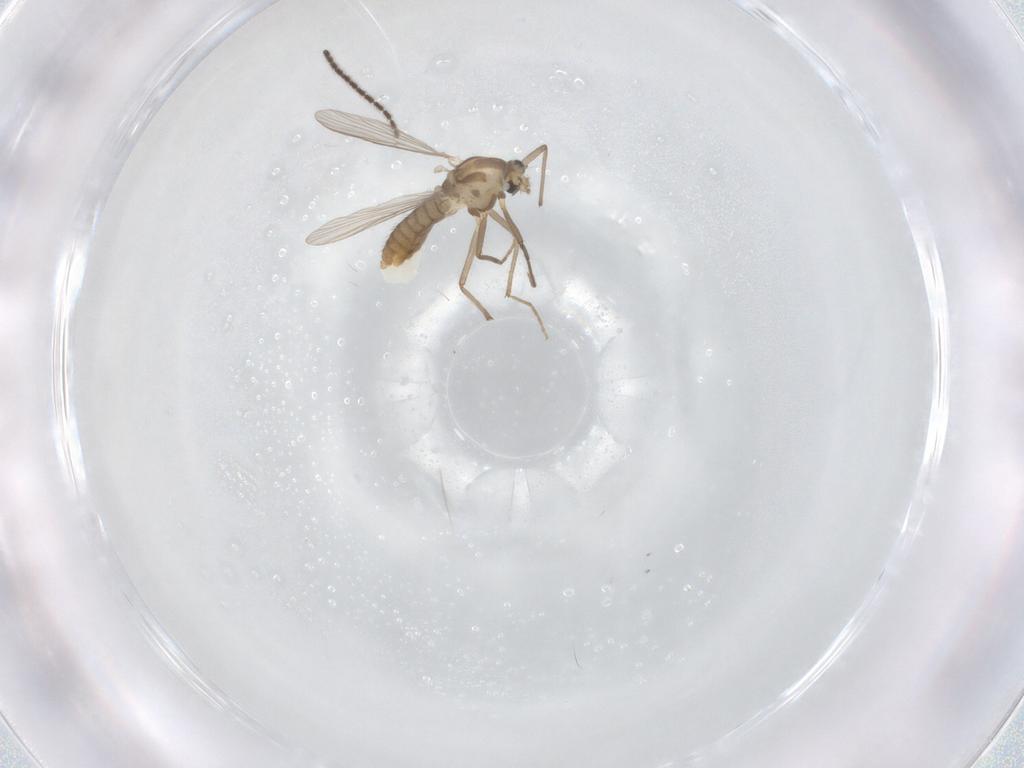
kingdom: Animalia
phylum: Arthropoda
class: Insecta
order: Diptera
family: Chironomidae
